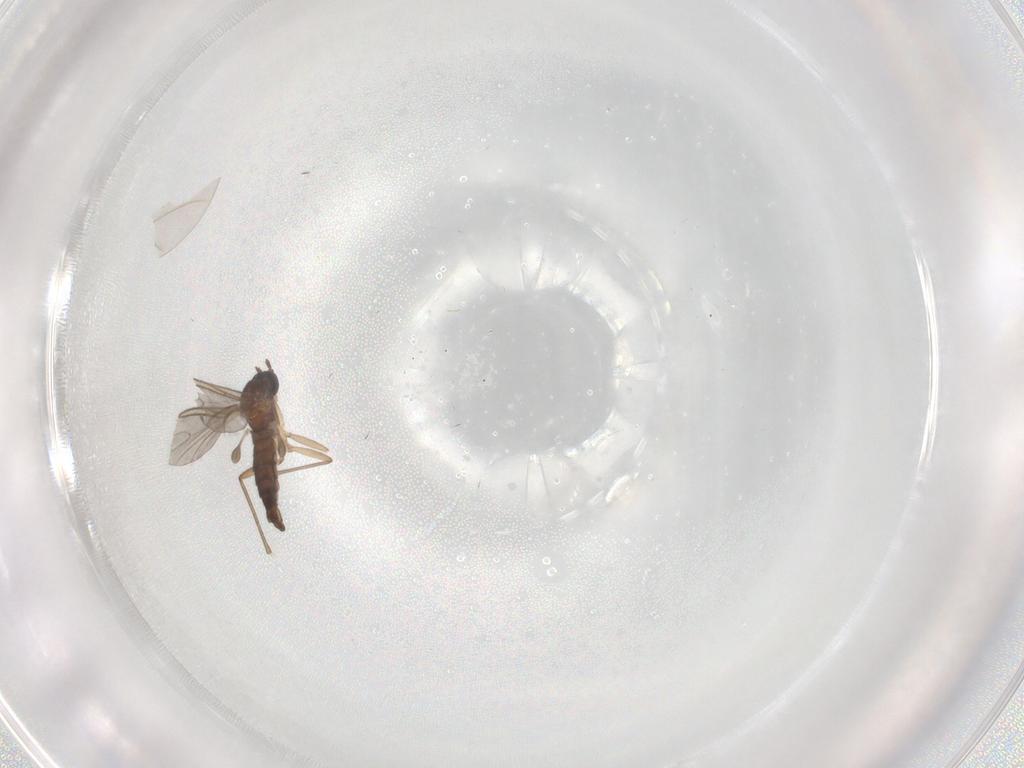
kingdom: Animalia
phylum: Arthropoda
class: Insecta
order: Diptera
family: Sciaridae
